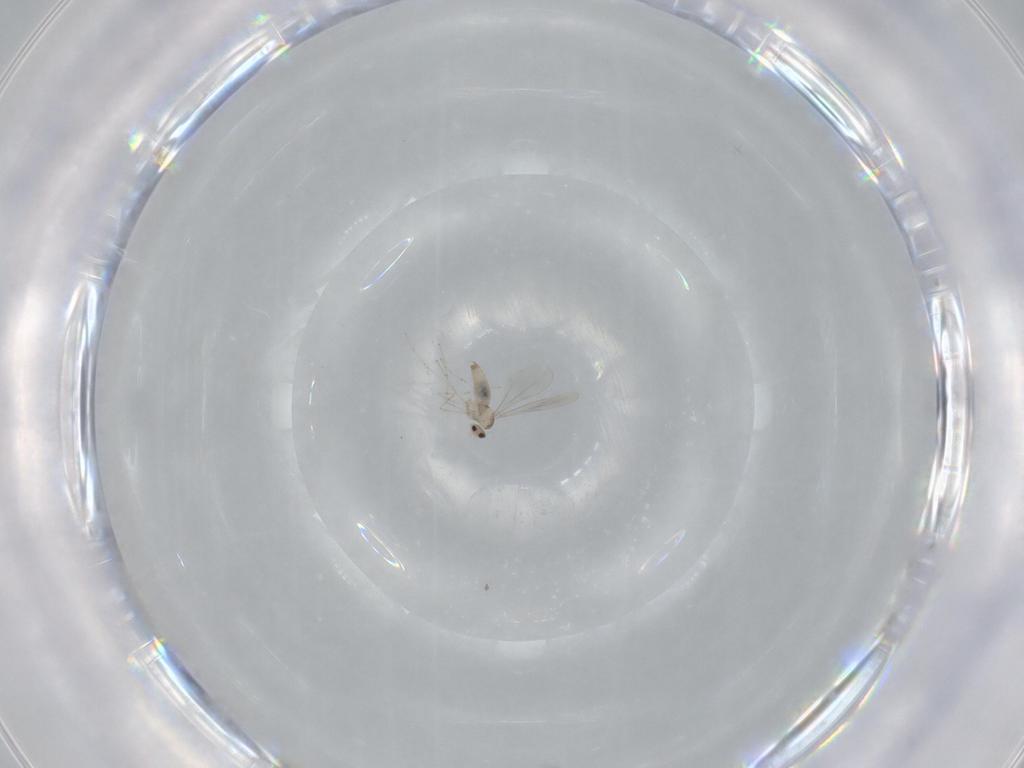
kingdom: Animalia
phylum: Arthropoda
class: Insecta
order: Diptera
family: Cecidomyiidae
